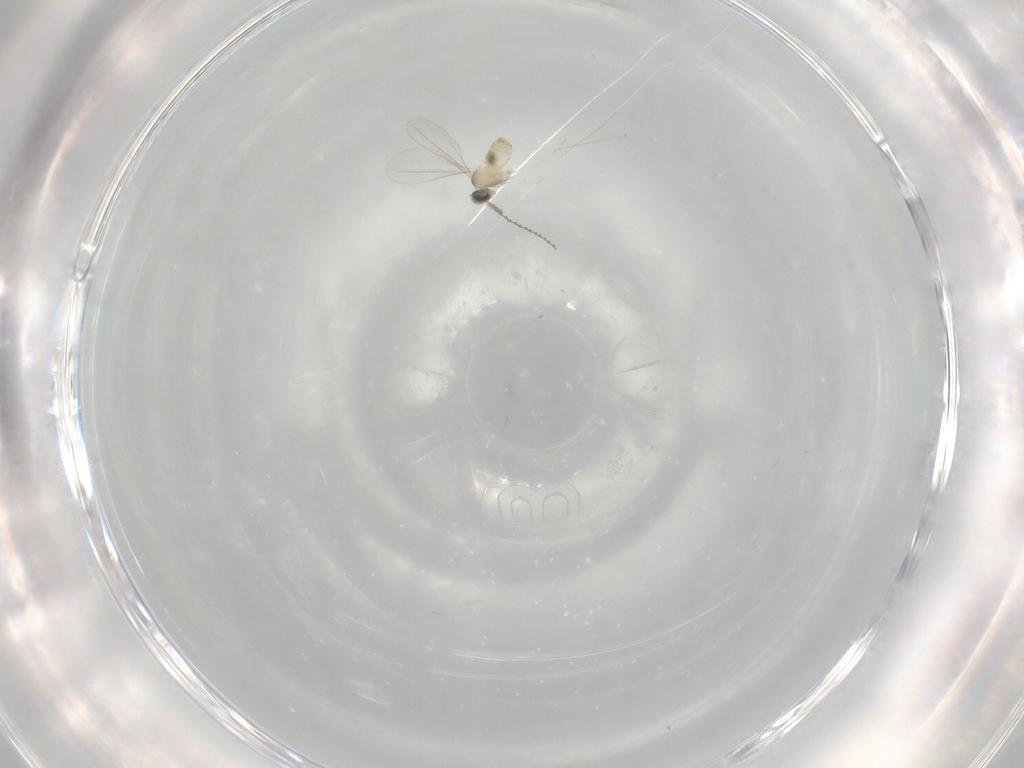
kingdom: Animalia
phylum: Arthropoda
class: Insecta
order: Diptera
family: Cecidomyiidae
